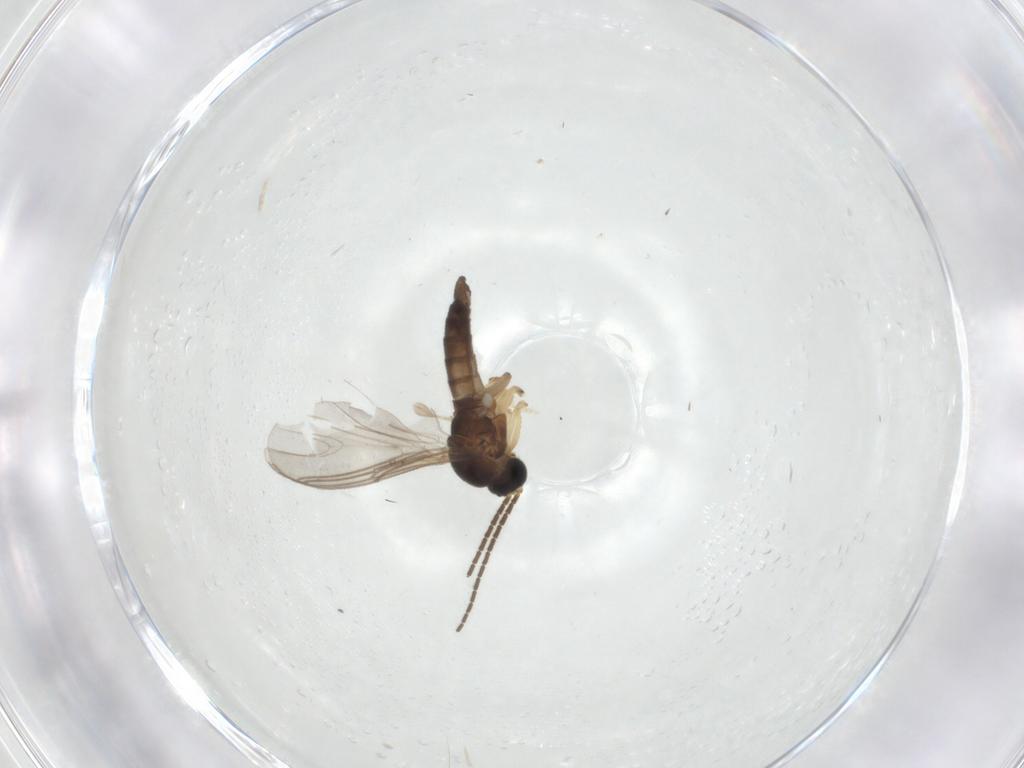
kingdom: Animalia
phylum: Arthropoda
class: Insecta
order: Diptera
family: Sciaridae
